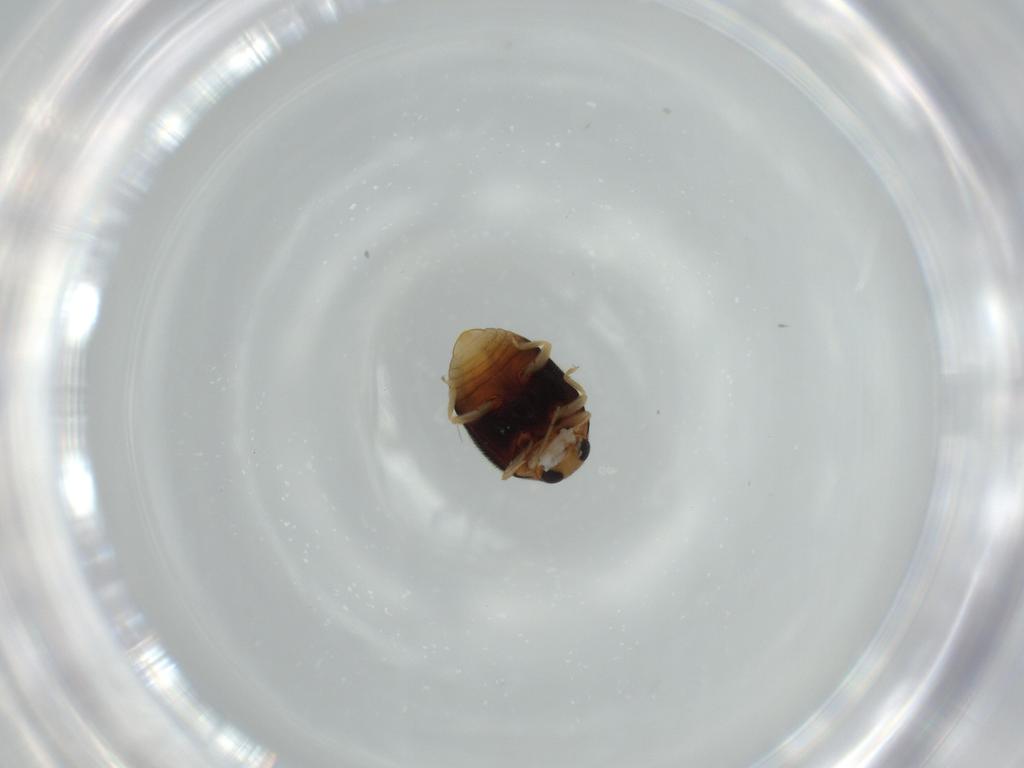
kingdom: Animalia
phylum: Arthropoda
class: Insecta
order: Coleoptera
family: Coccinellidae
